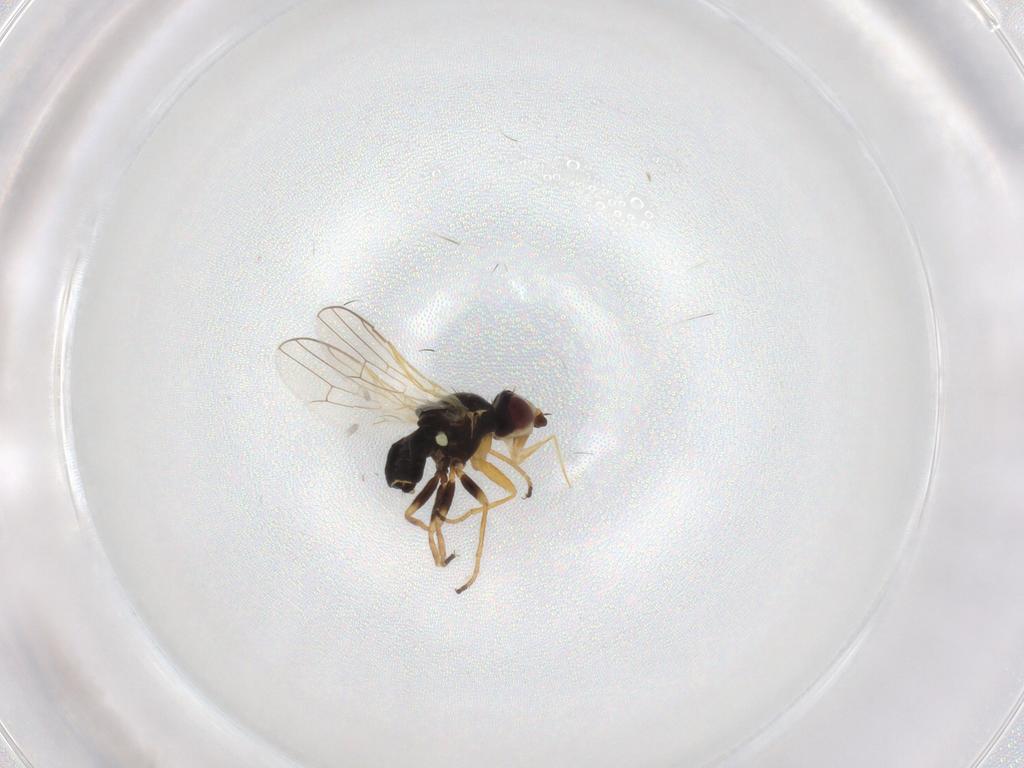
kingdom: Animalia
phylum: Arthropoda
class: Insecta
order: Diptera
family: Tephritidae
